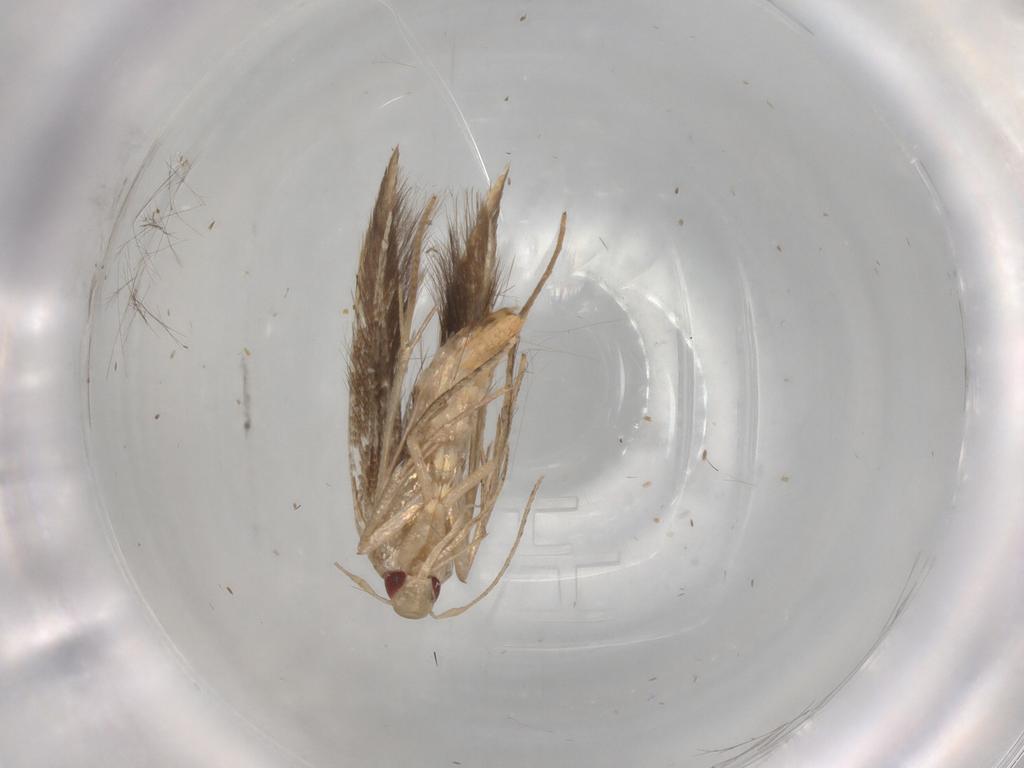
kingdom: Animalia
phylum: Arthropoda
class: Insecta
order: Lepidoptera
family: Gelechiidae
